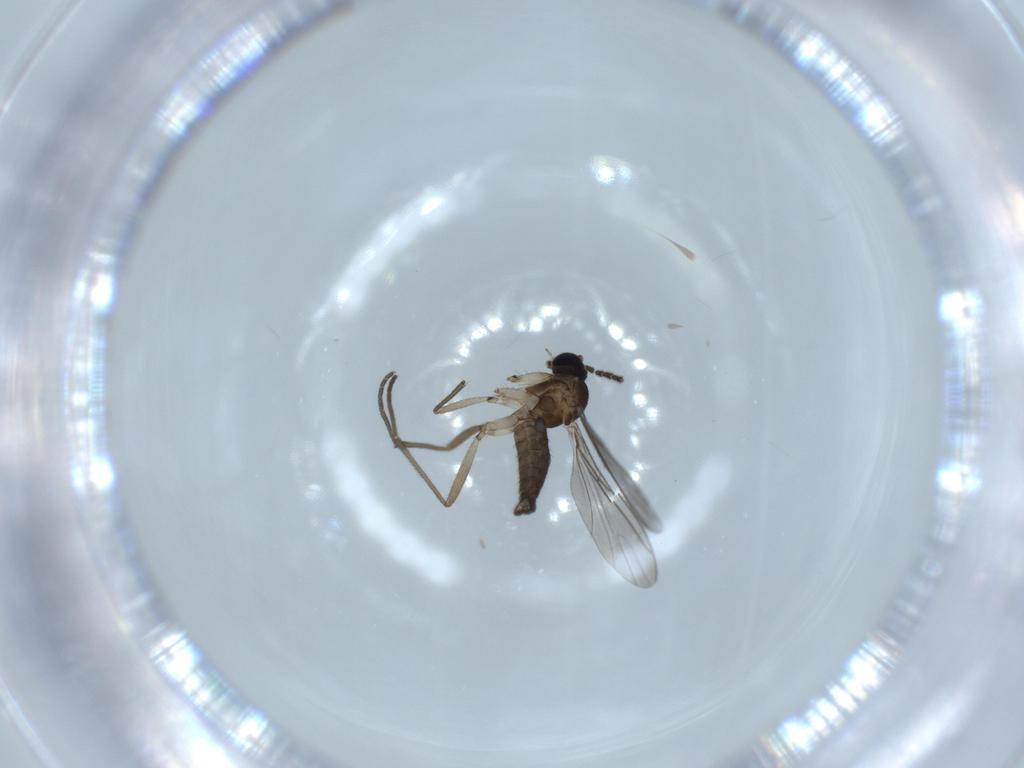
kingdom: Animalia
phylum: Arthropoda
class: Insecta
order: Diptera
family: Sciaridae
